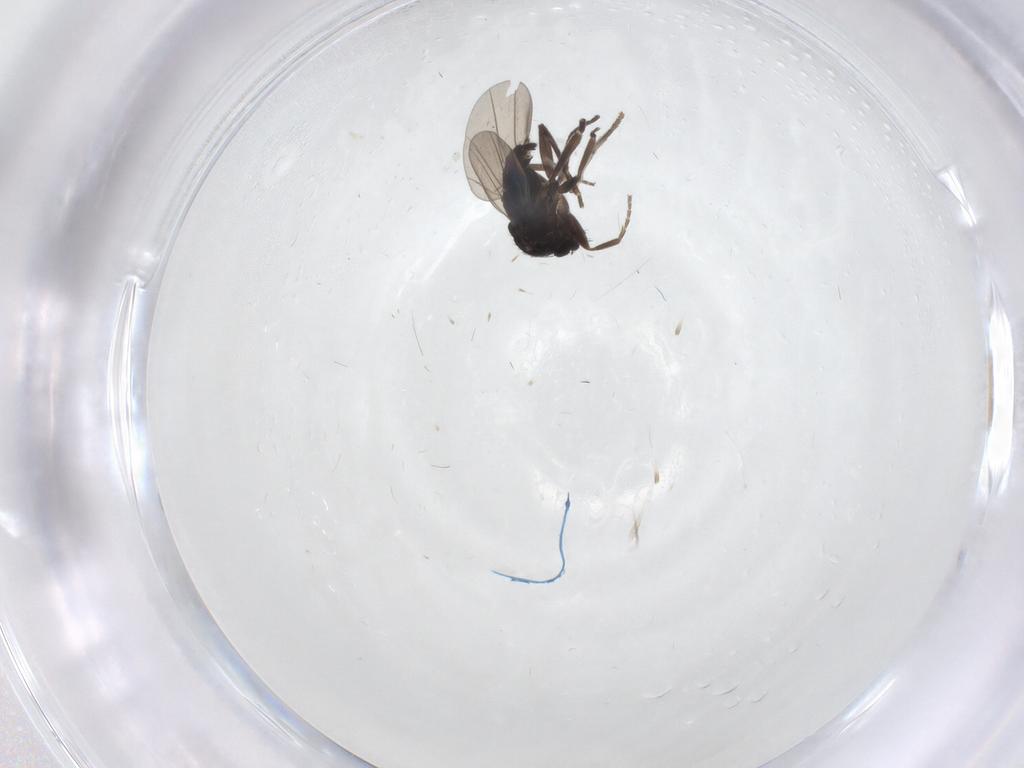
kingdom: Animalia
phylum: Arthropoda
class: Insecta
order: Diptera
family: Psychodidae
